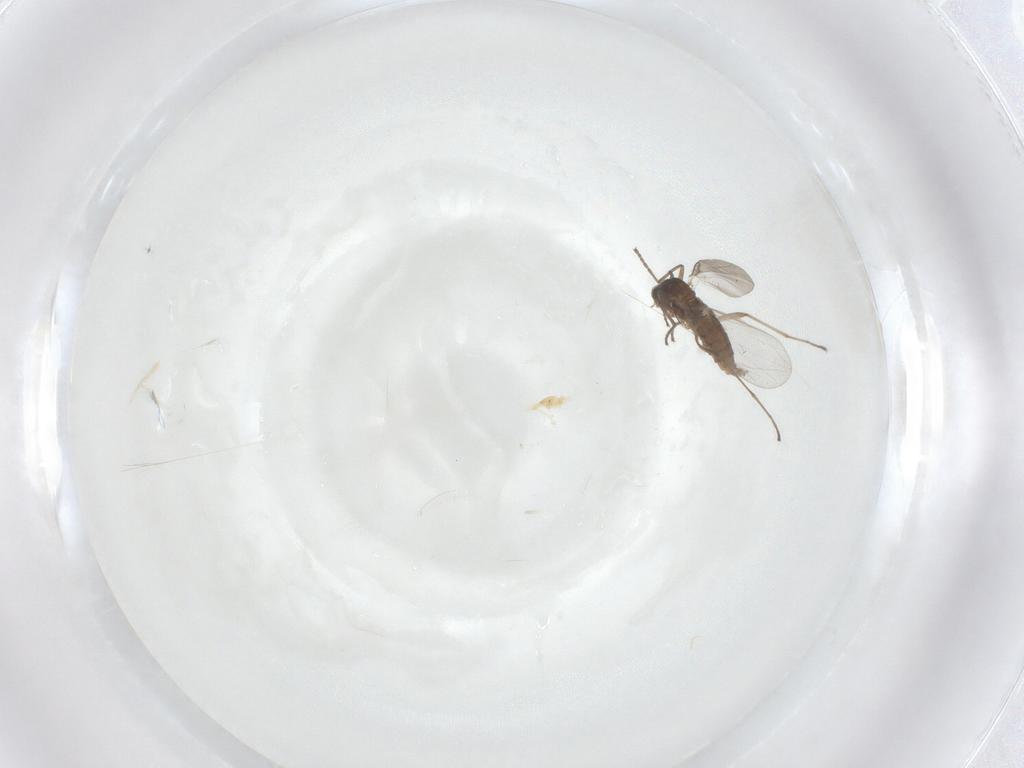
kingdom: Animalia
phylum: Arthropoda
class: Insecta
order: Diptera
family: Cecidomyiidae
